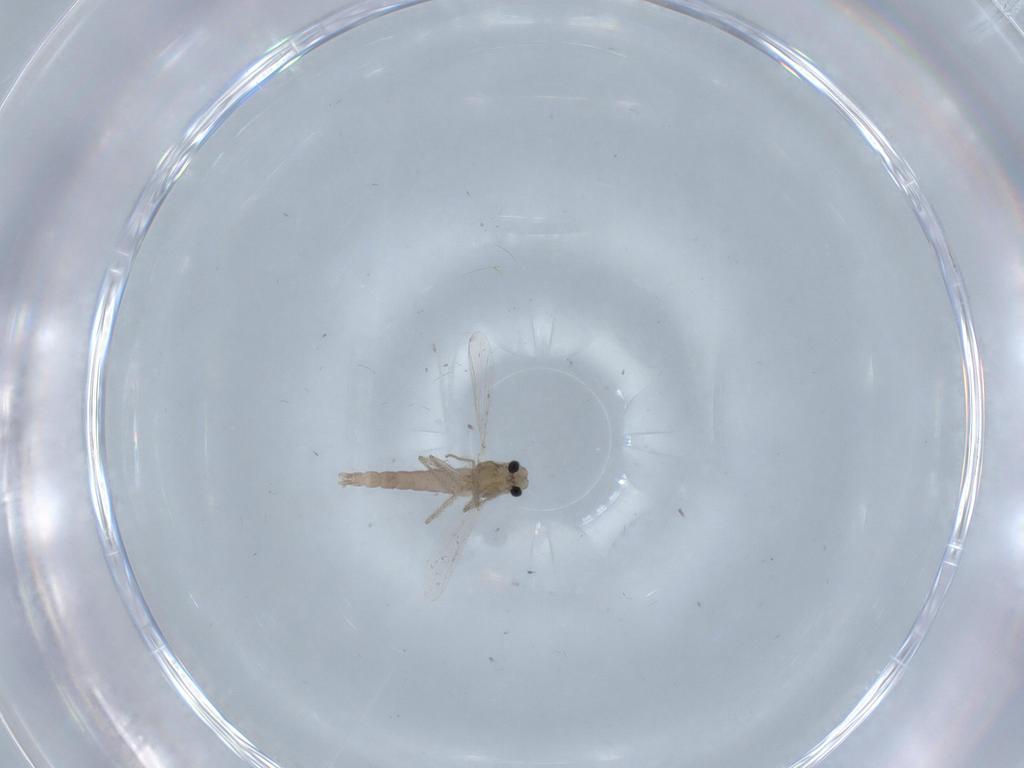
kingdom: Animalia
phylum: Arthropoda
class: Insecta
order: Diptera
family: Chironomidae
